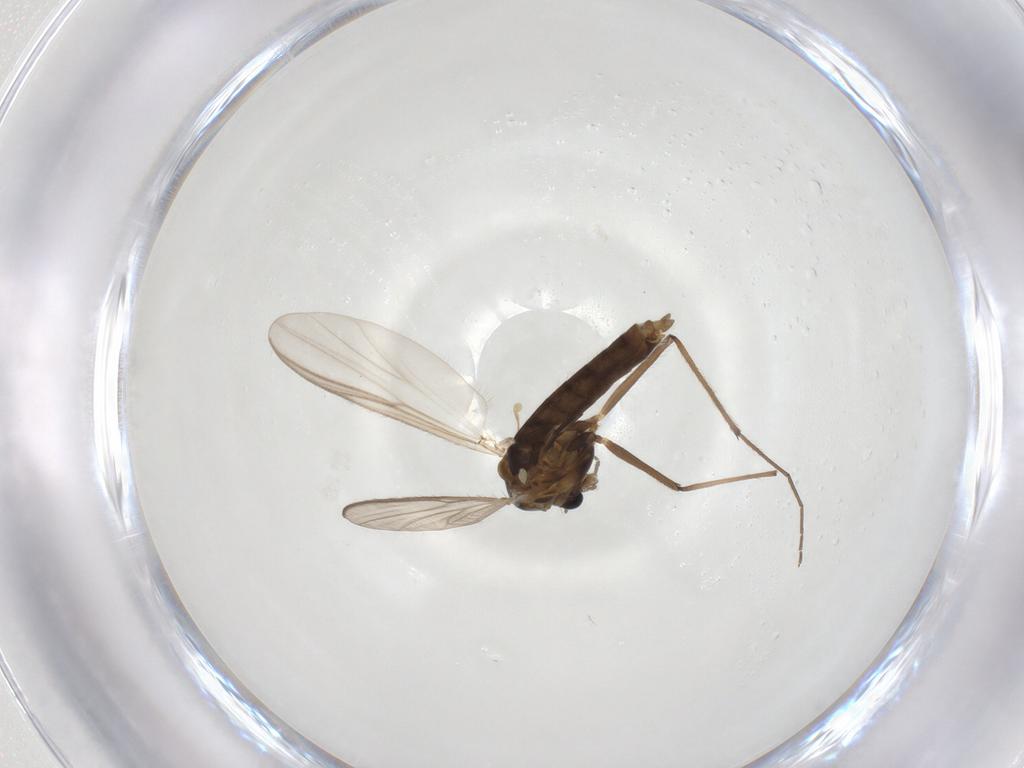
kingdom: Animalia
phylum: Arthropoda
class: Insecta
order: Diptera
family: Chironomidae
